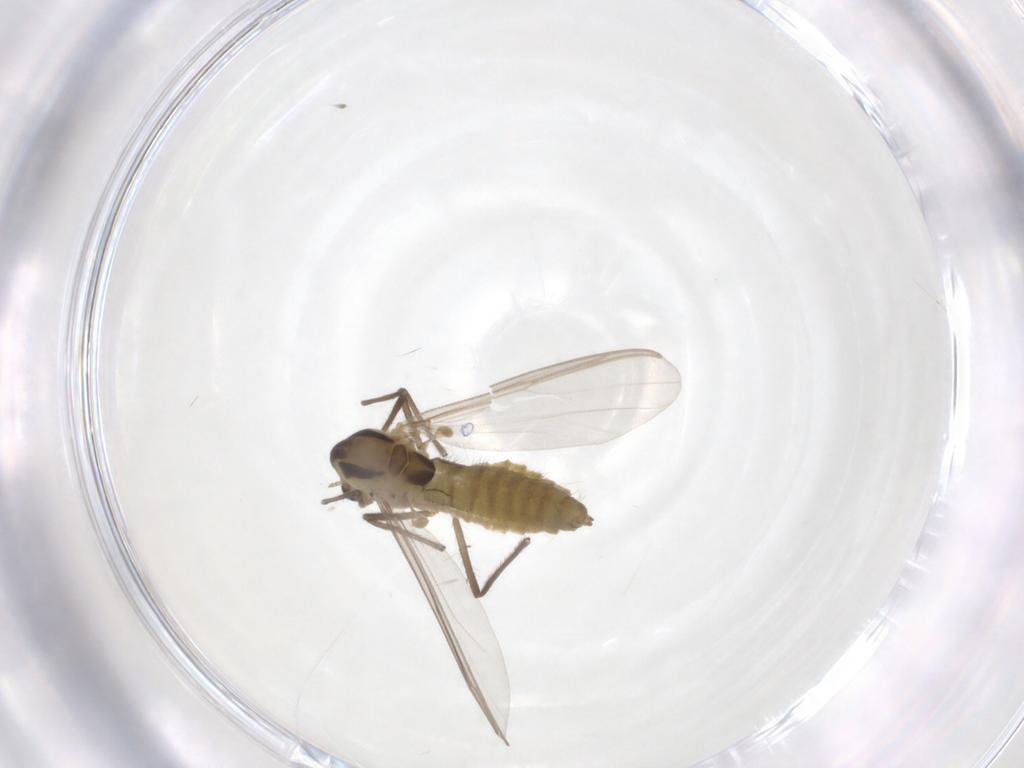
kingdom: Animalia
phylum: Arthropoda
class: Insecta
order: Diptera
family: Chironomidae
